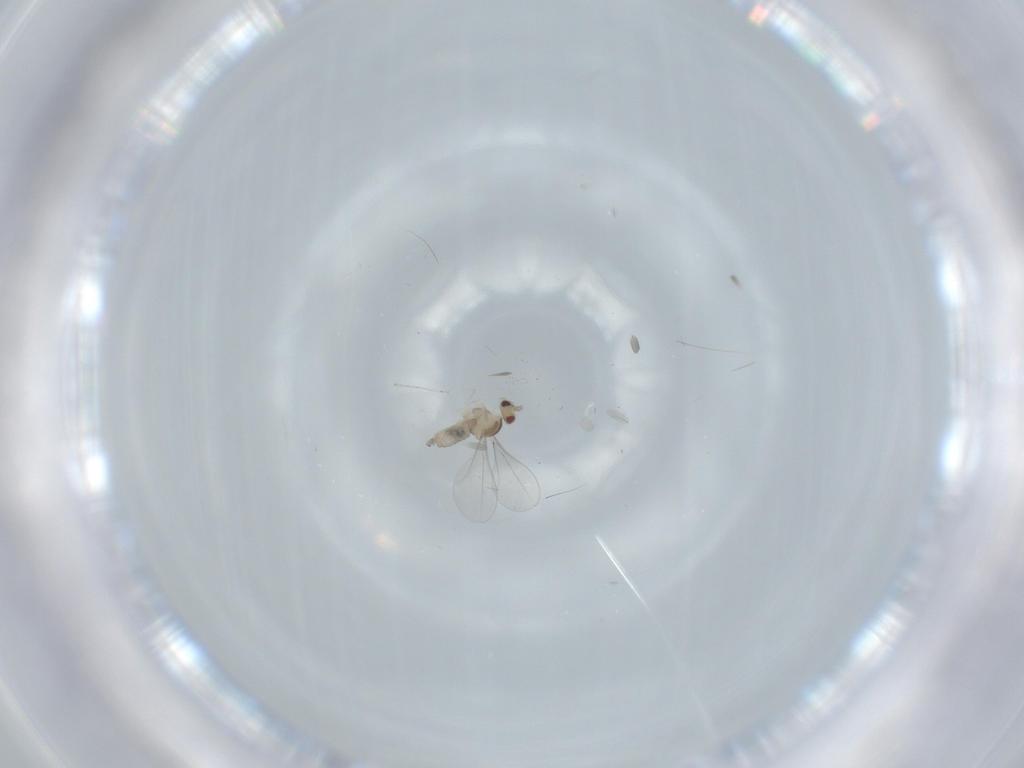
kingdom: Animalia
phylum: Arthropoda
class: Insecta
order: Diptera
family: Cecidomyiidae
